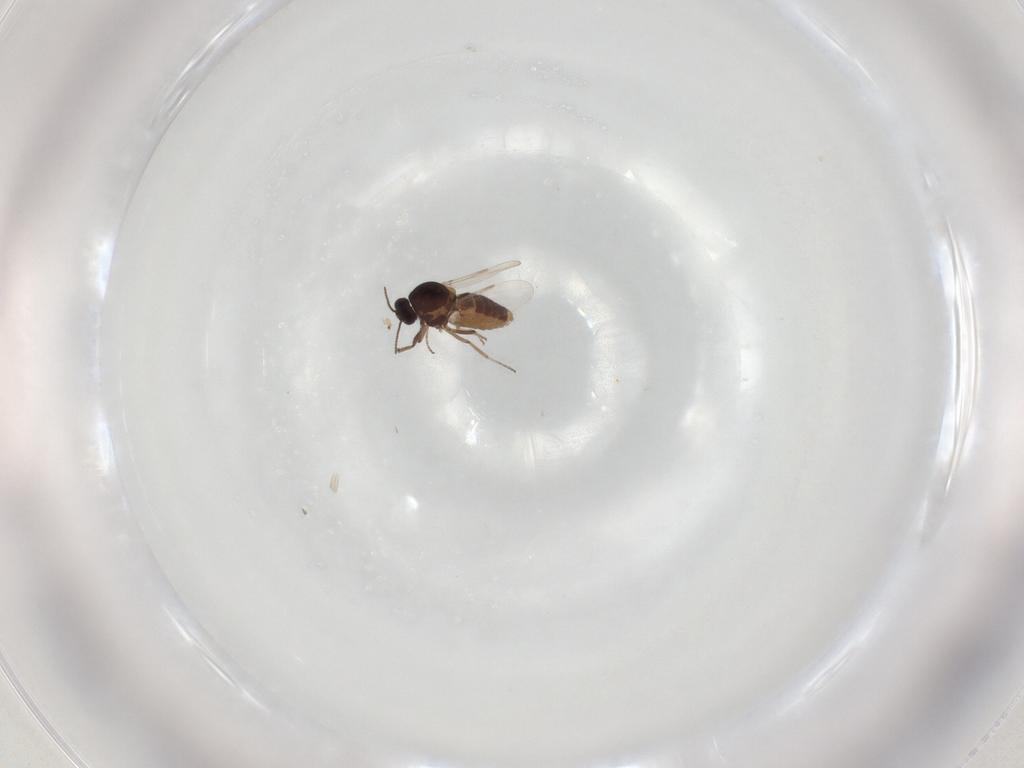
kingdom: Animalia
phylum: Arthropoda
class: Insecta
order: Diptera
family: Ceratopogonidae
